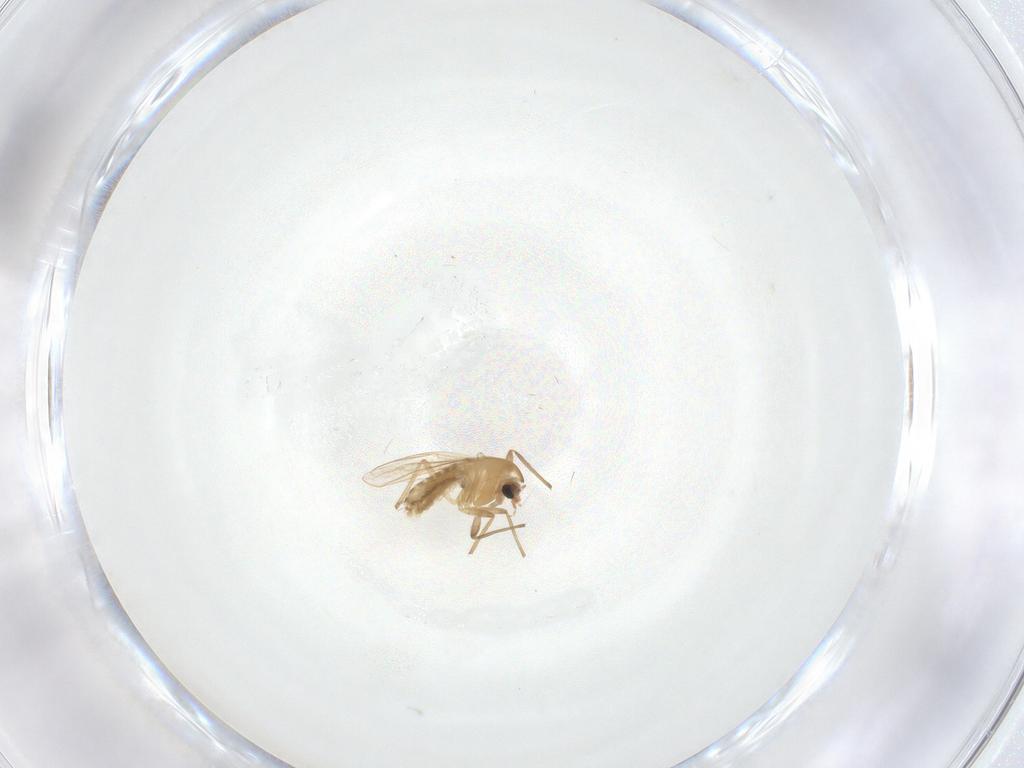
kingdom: Animalia
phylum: Arthropoda
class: Insecta
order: Diptera
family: Chironomidae
